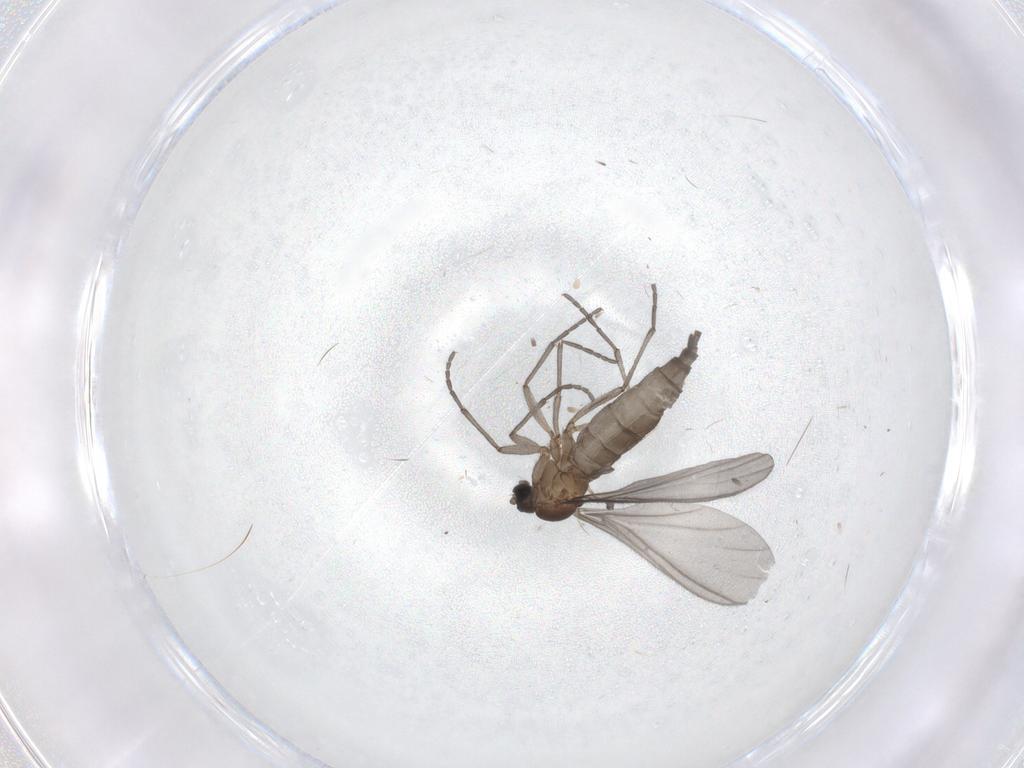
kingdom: Animalia
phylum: Arthropoda
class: Insecta
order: Diptera
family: Sciaridae
